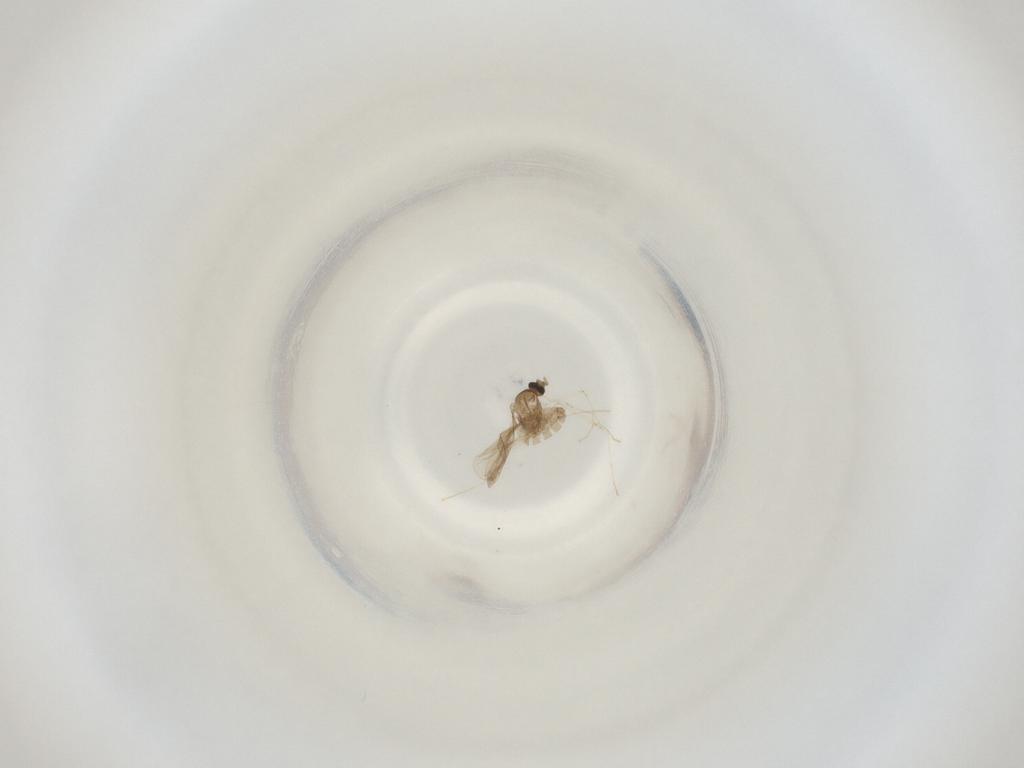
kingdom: Animalia
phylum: Arthropoda
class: Insecta
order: Diptera
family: Cecidomyiidae
